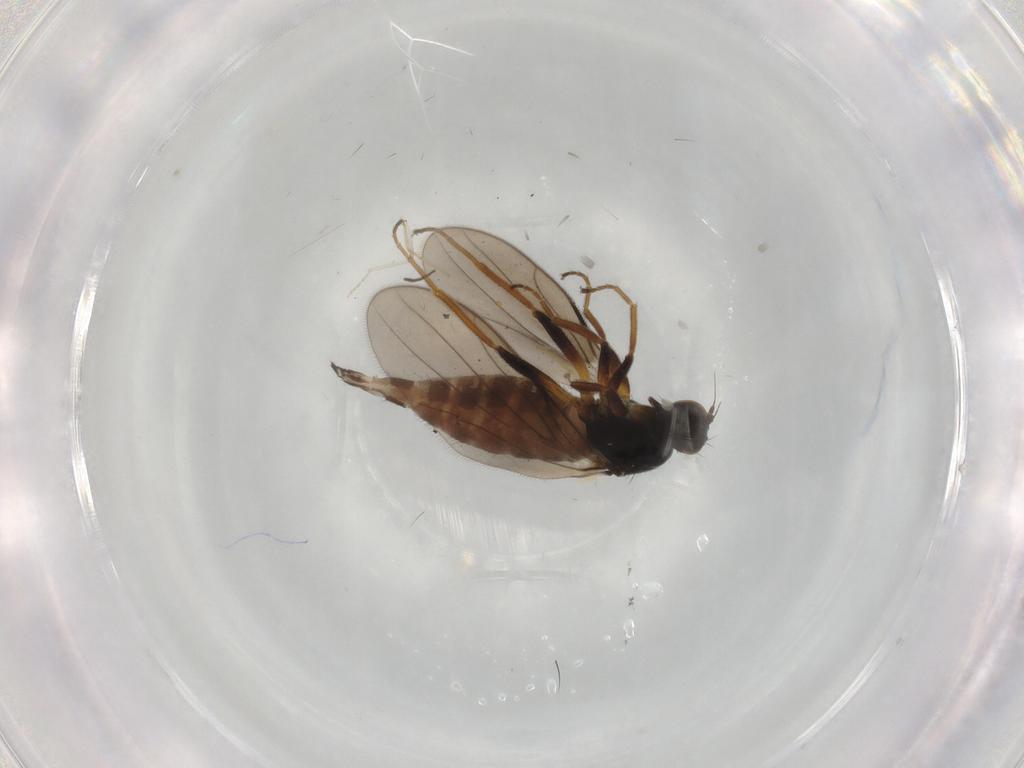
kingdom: Animalia
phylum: Arthropoda
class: Insecta
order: Diptera
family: Hybotidae
